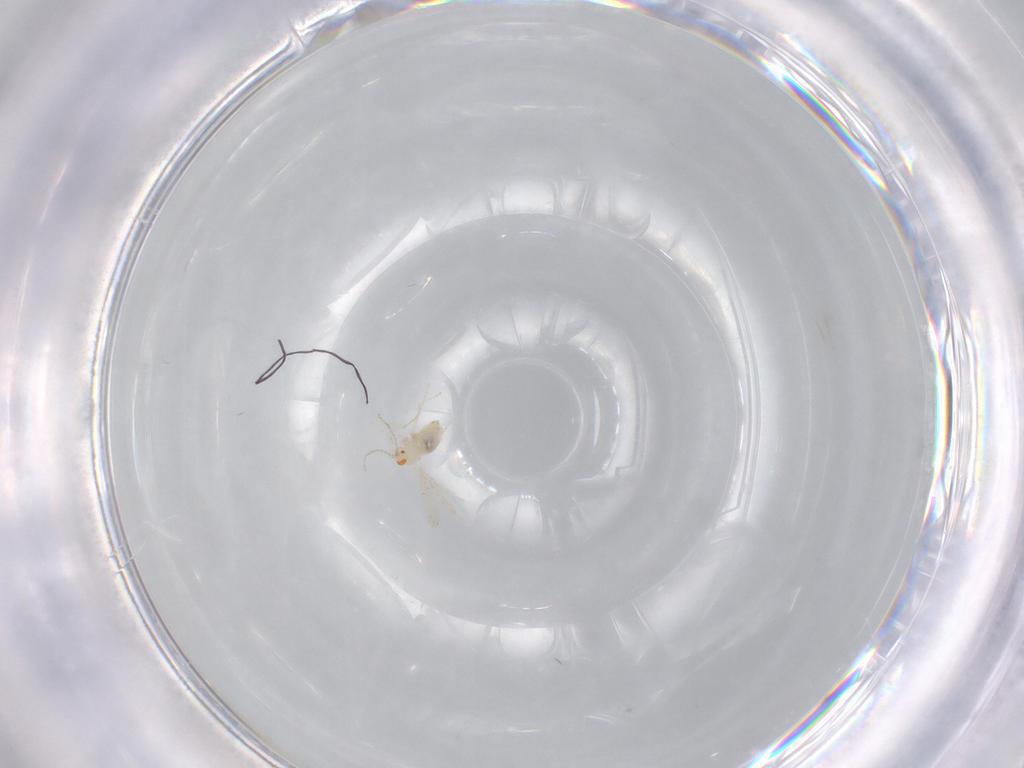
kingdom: Animalia
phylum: Arthropoda
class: Insecta
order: Diptera
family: Cecidomyiidae
